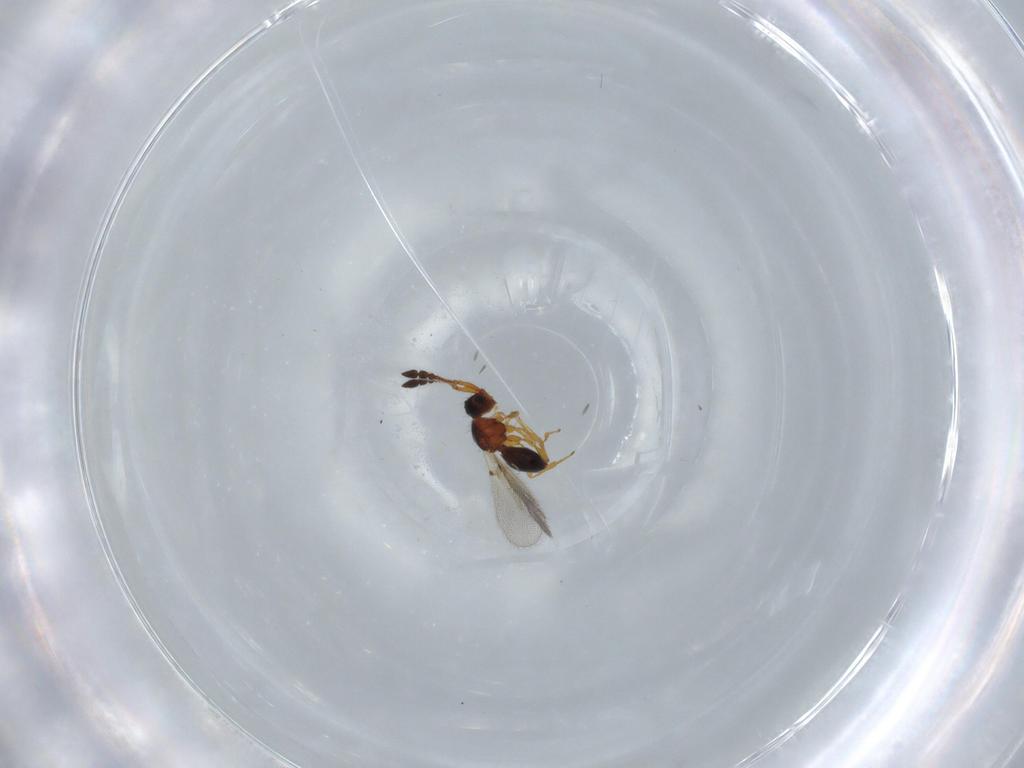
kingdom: Animalia
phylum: Arthropoda
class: Insecta
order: Hymenoptera
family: Diapriidae
